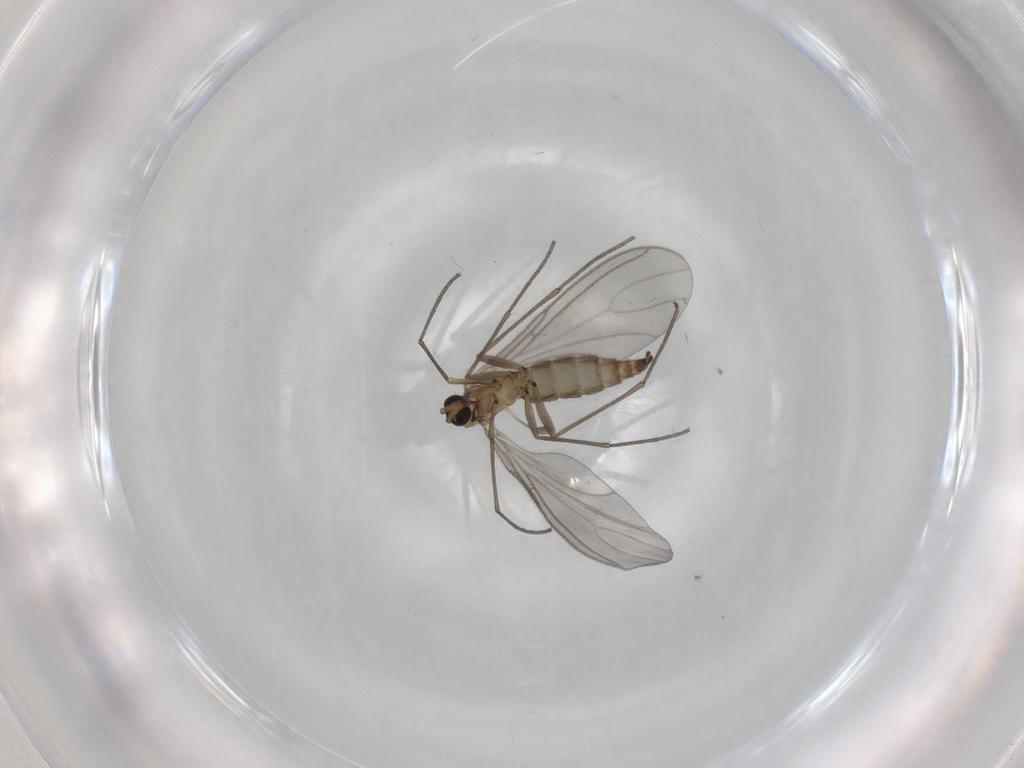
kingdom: Animalia
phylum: Arthropoda
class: Insecta
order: Diptera
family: Sciaridae
